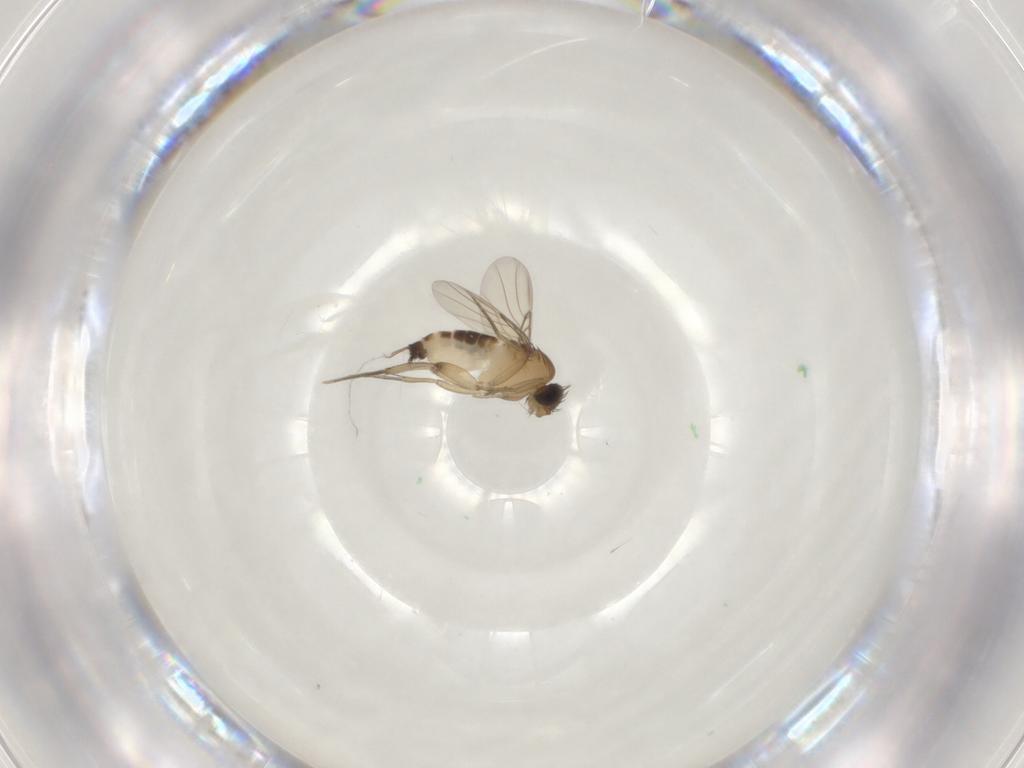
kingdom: Animalia
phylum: Arthropoda
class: Insecta
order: Diptera
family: Phoridae
